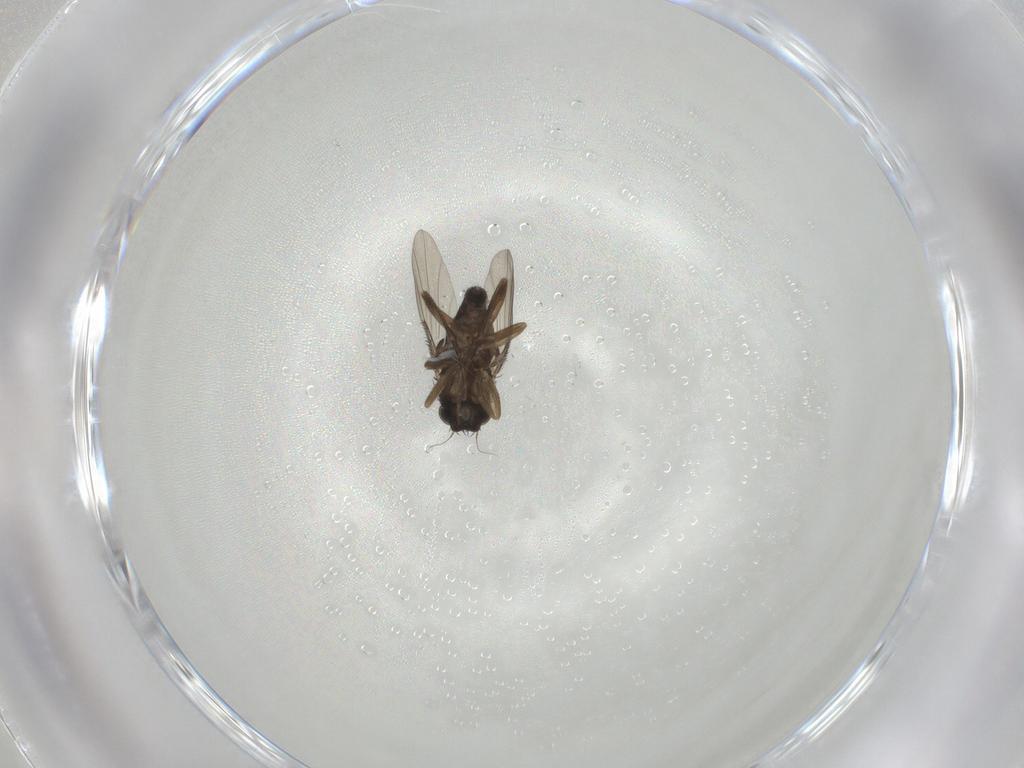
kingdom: Animalia
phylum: Arthropoda
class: Insecta
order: Diptera
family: Phoridae
